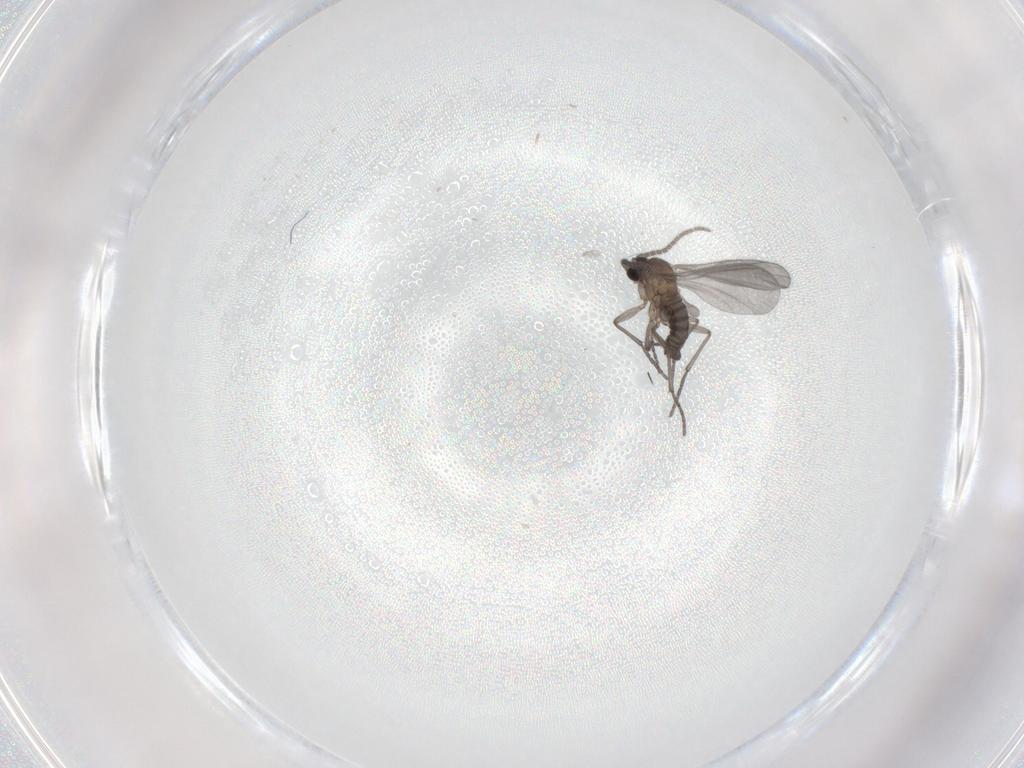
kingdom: Animalia
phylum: Arthropoda
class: Insecta
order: Diptera
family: Sciaridae
